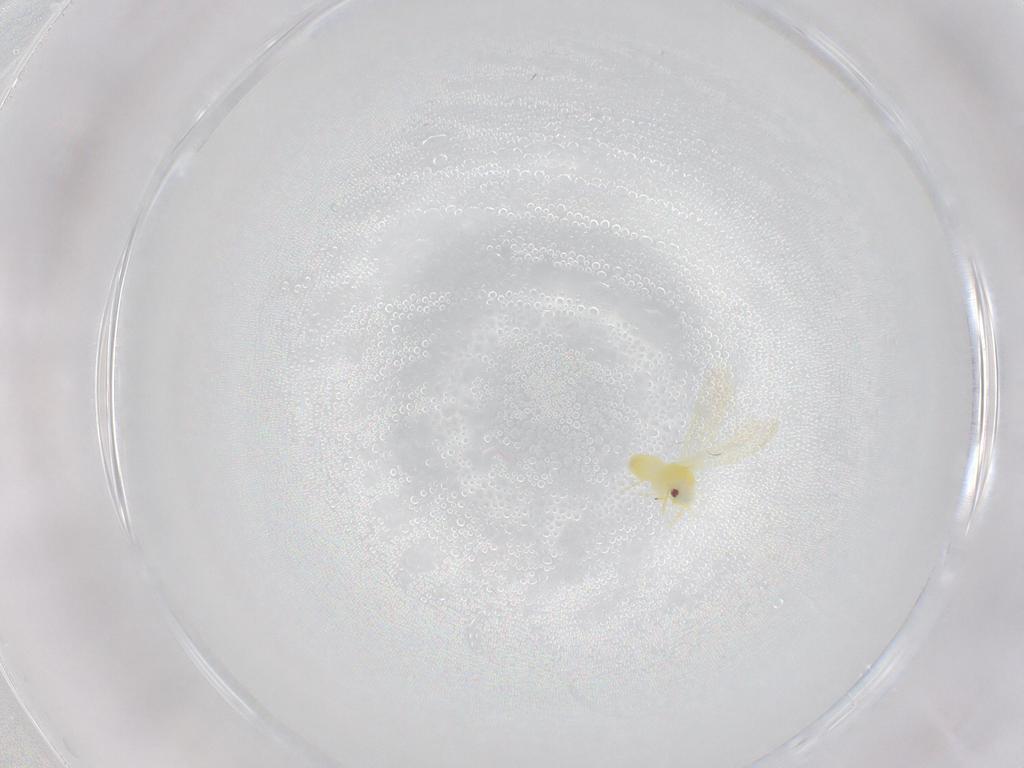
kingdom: Animalia
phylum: Arthropoda
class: Insecta
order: Hemiptera
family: Aleyrodidae
